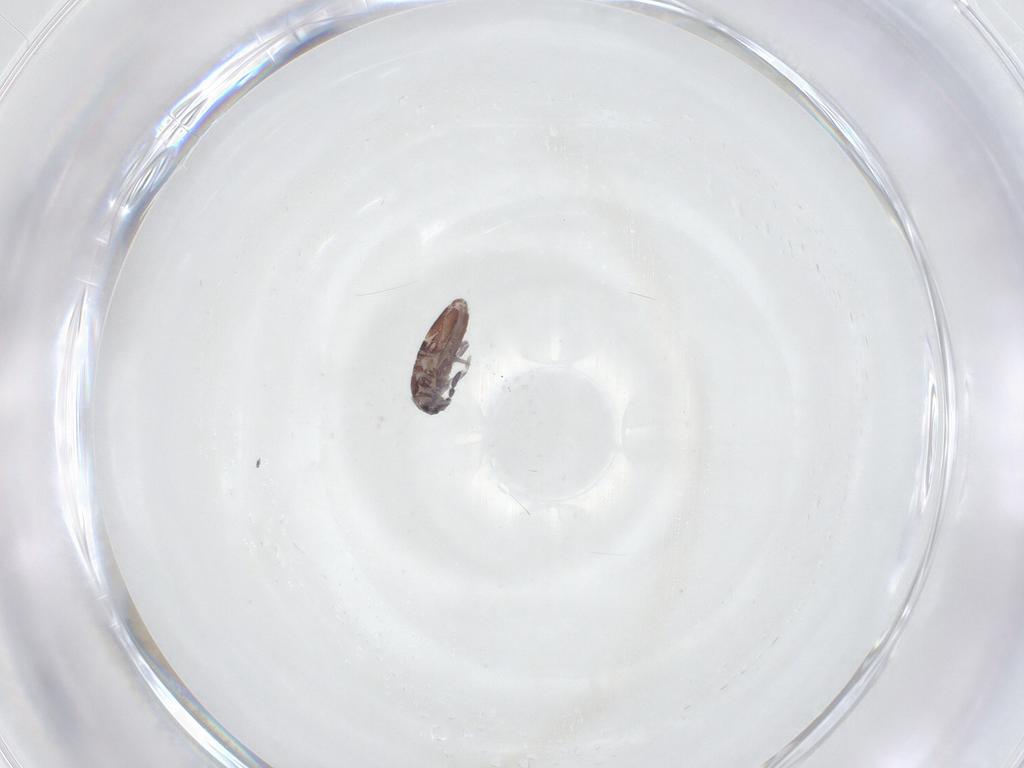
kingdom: Animalia
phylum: Arthropoda
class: Collembola
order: Entomobryomorpha
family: Entomobryidae
